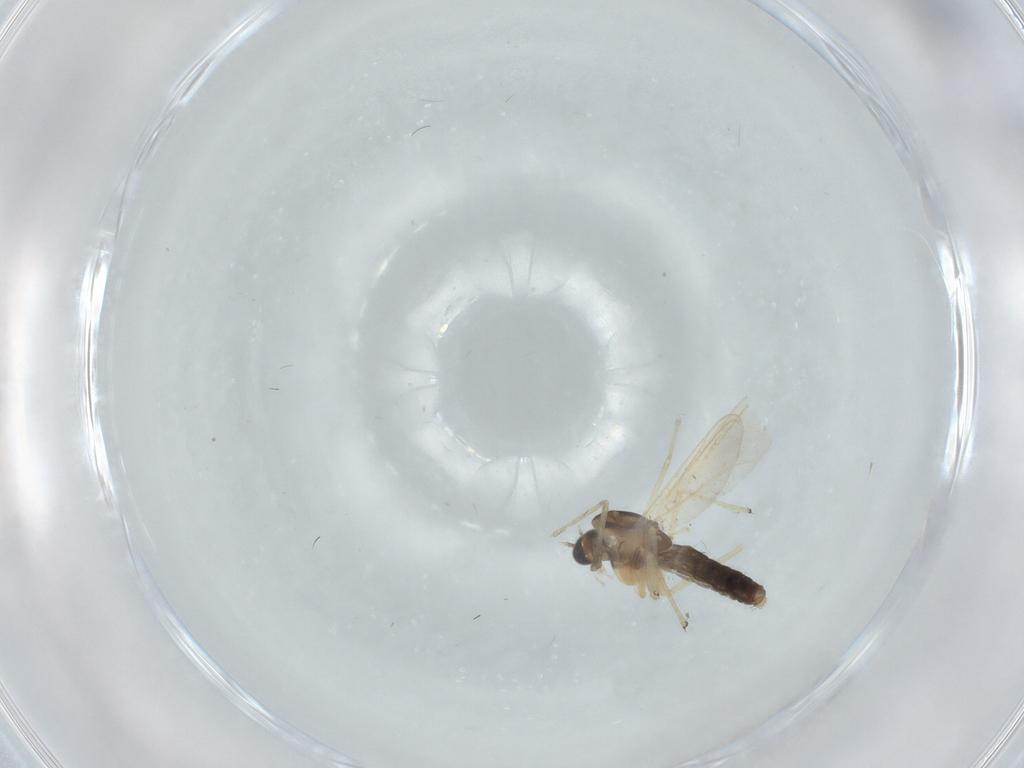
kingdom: Animalia
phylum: Arthropoda
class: Insecta
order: Diptera
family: Chironomidae
